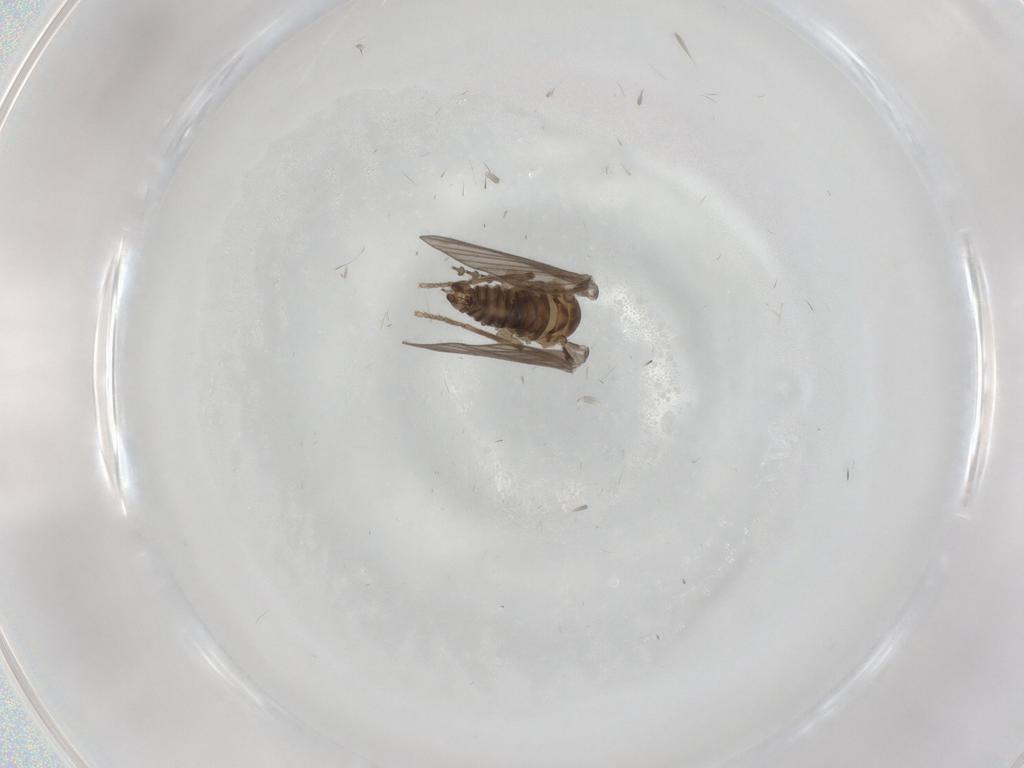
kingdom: Animalia
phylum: Arthropoda
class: Insecta
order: Diptera
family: Psychodidae
